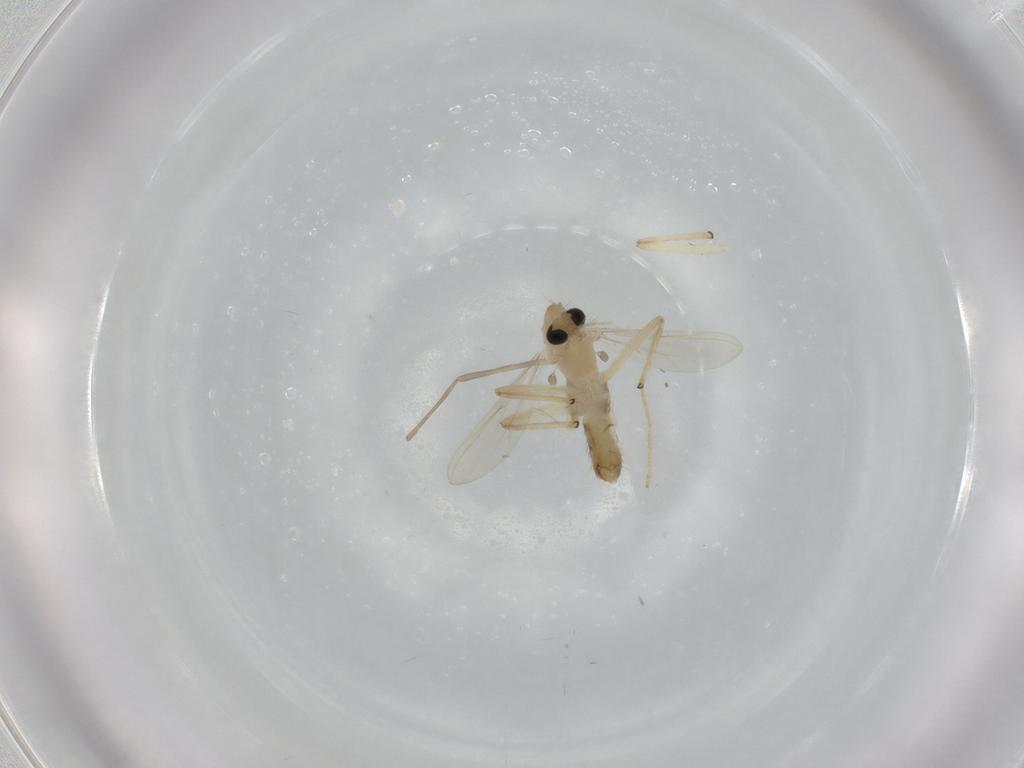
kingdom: Animalia
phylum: Arthropoda
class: Insecta
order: Diptera
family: Chironomidae
